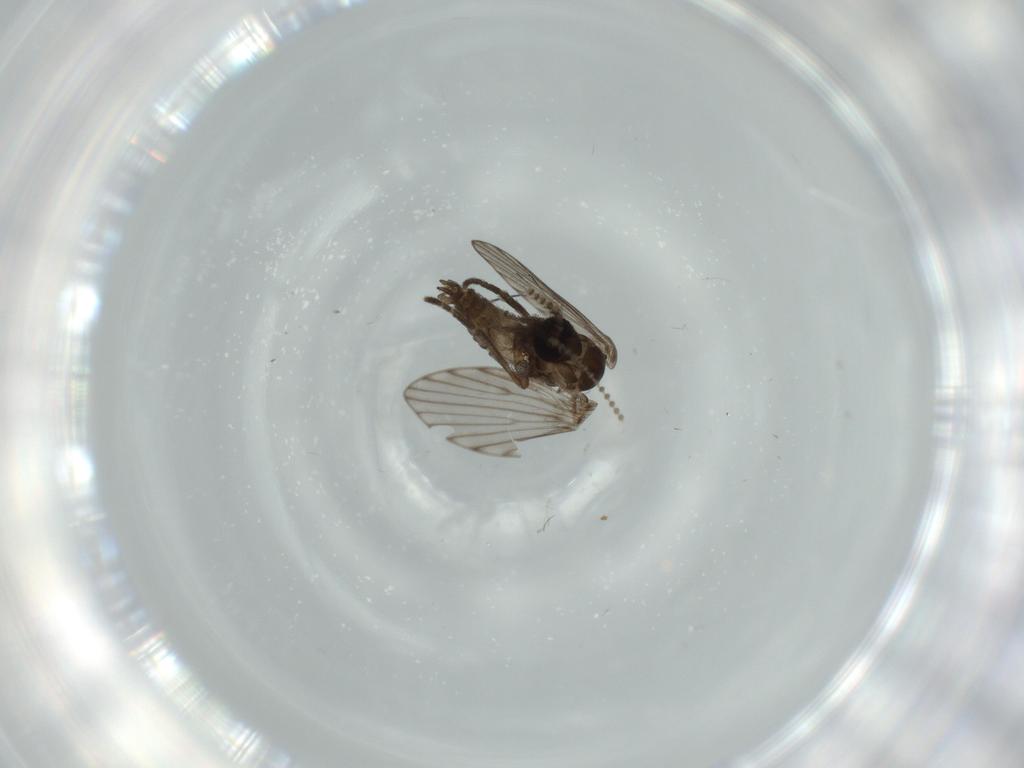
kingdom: Animalia
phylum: Arthropoda
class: Insecta
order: Diptera
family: Psychodidae
